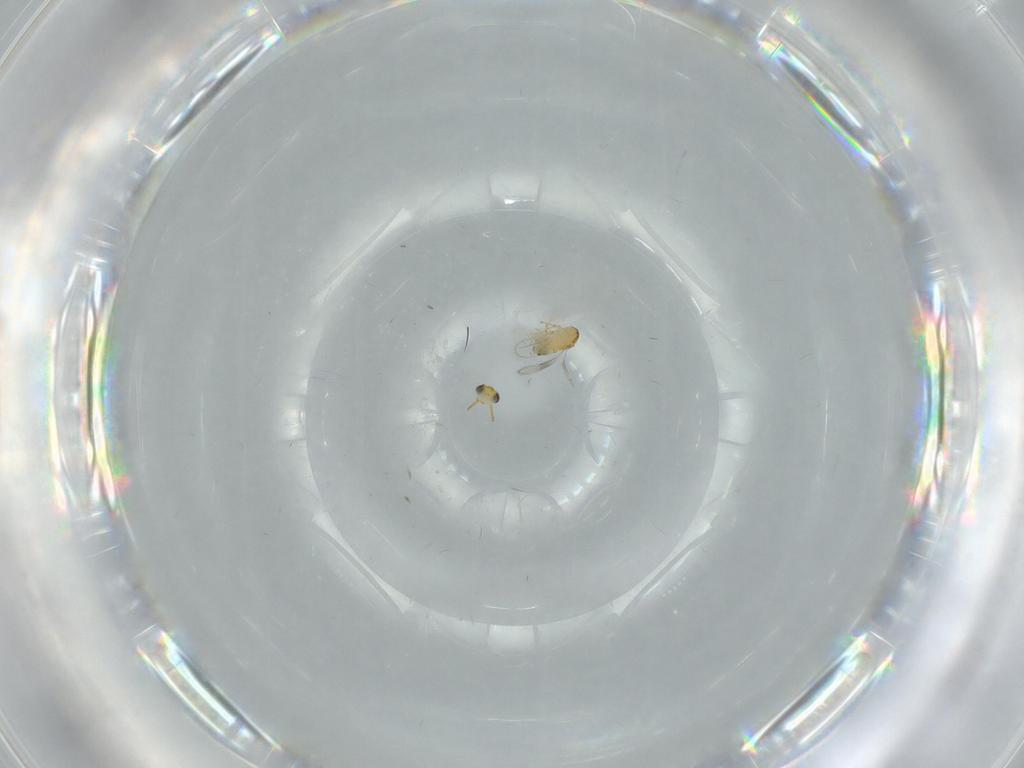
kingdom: Animalia
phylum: Arthropoda
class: Insecta
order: Hymenoptera
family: Aphelinidae
